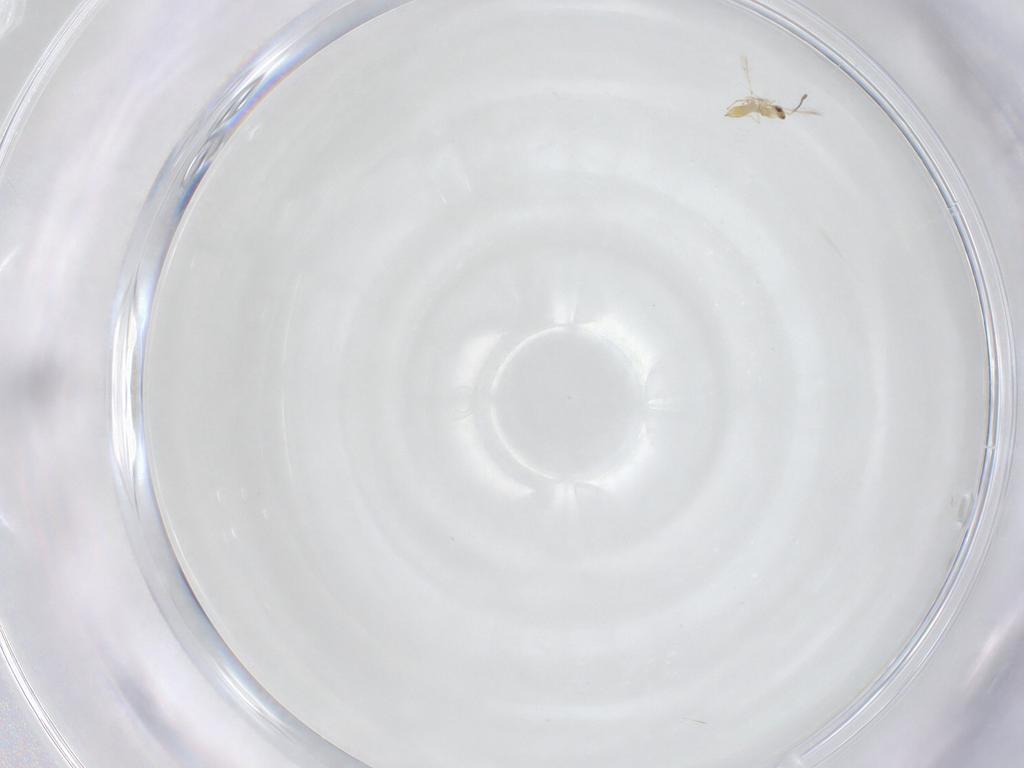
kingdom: Animalia
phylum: Arthropoda
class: Insecta
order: Hymenoptera
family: Mymaridae
